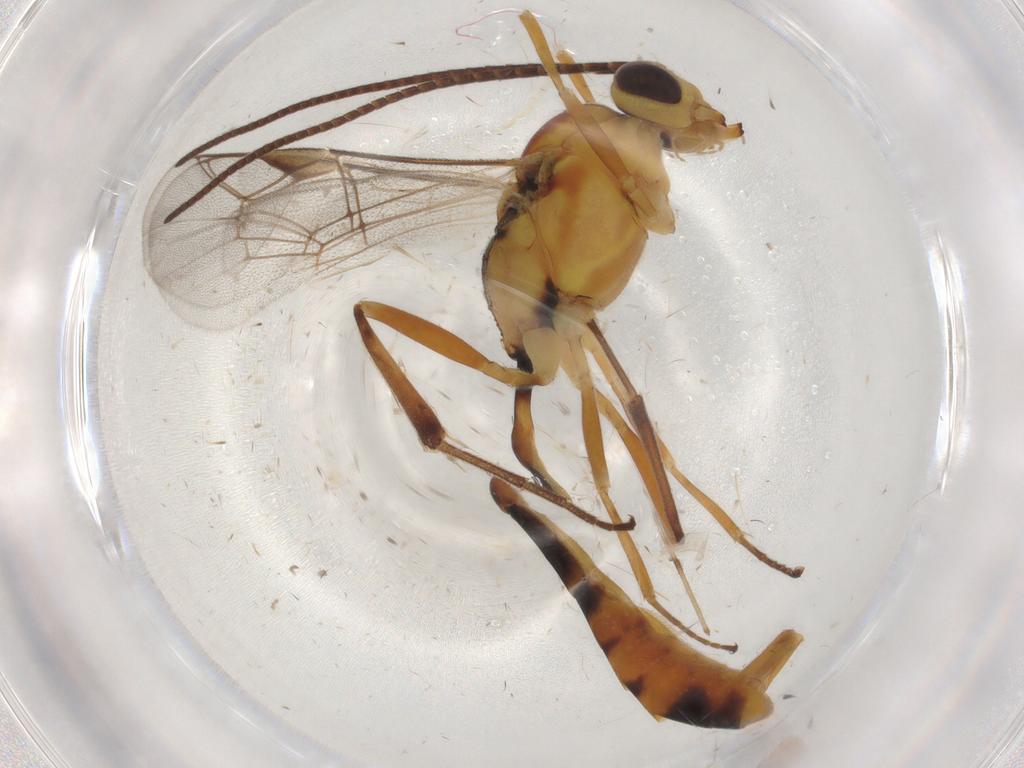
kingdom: Animalia
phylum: Arthropoda
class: Insecta
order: Hymenoptera
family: Ichneumonidae
